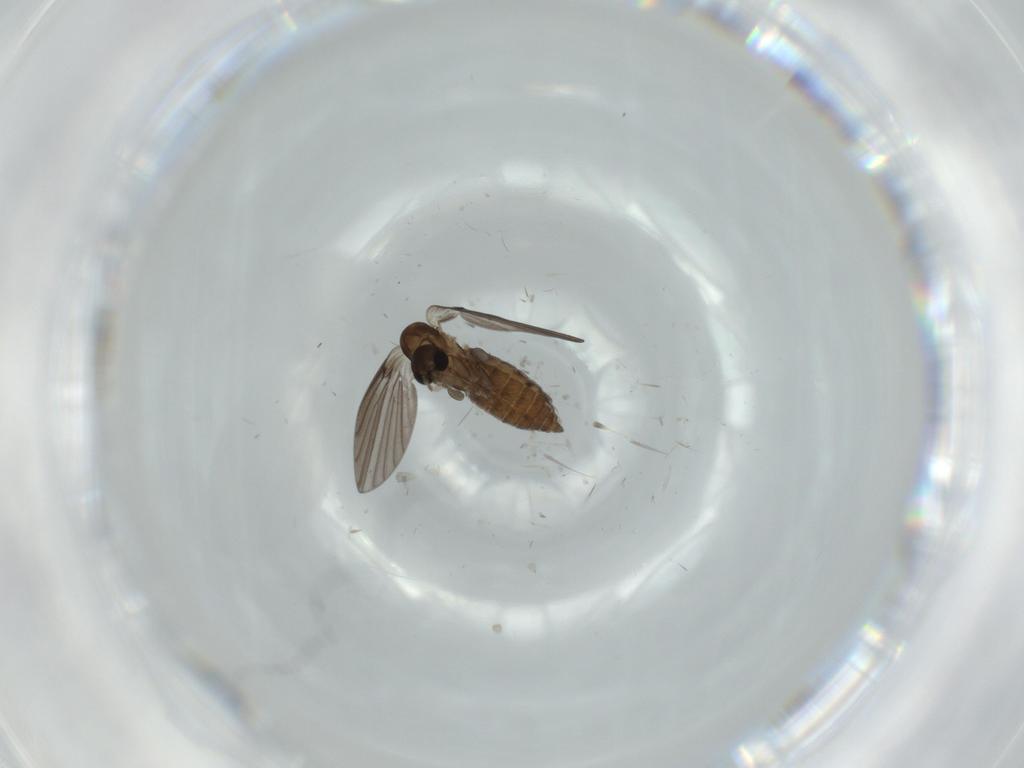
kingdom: Animalia
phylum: Arthropoda
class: Insecta
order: Diptera
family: Psychodidae
